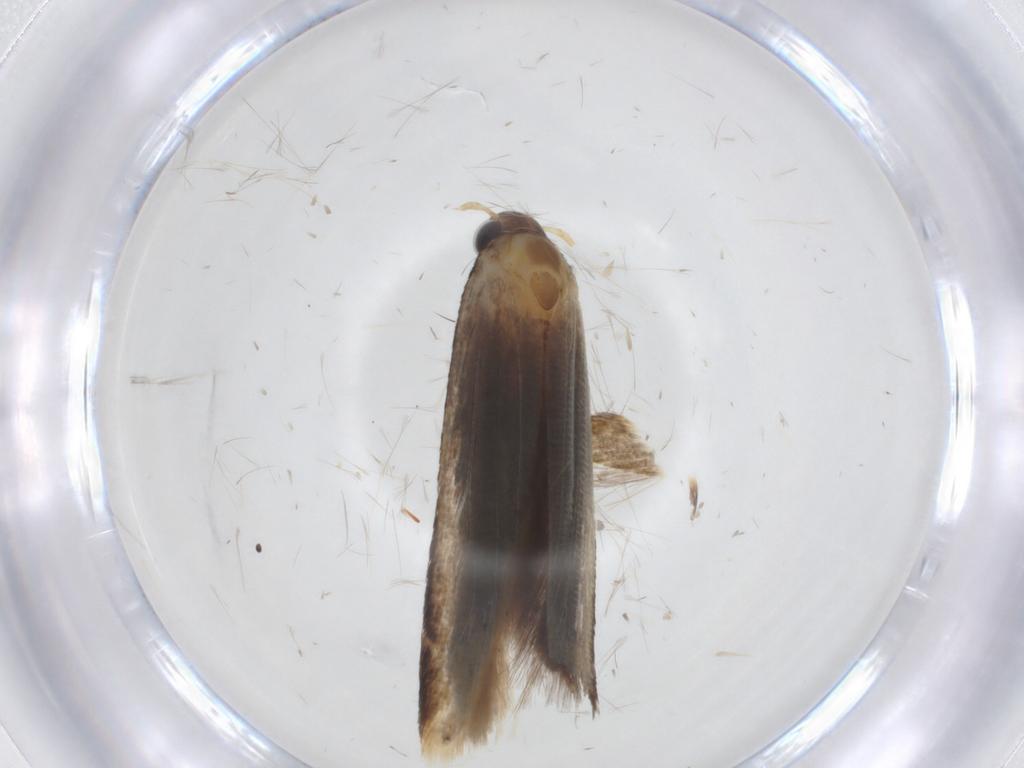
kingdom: Animalia
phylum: Arthropoda
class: Insecta
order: Lepidoptera
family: Gelechiidae
